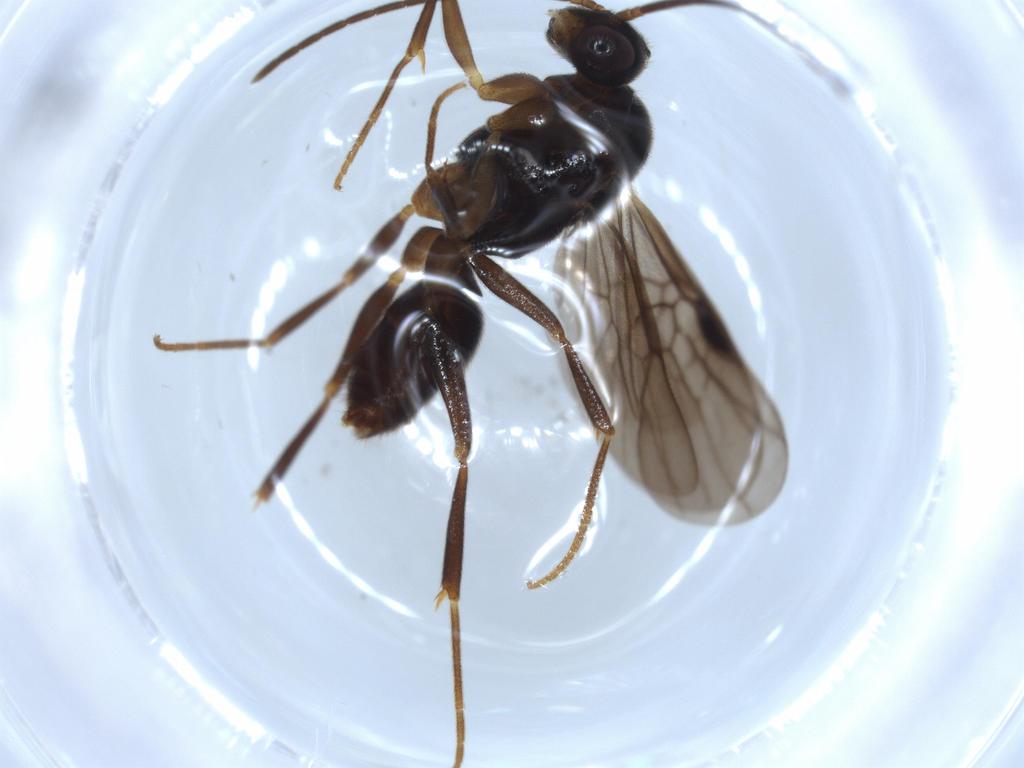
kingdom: Animalia
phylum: Arthropoda
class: Insecta
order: Hymenoptera
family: Formicidae
